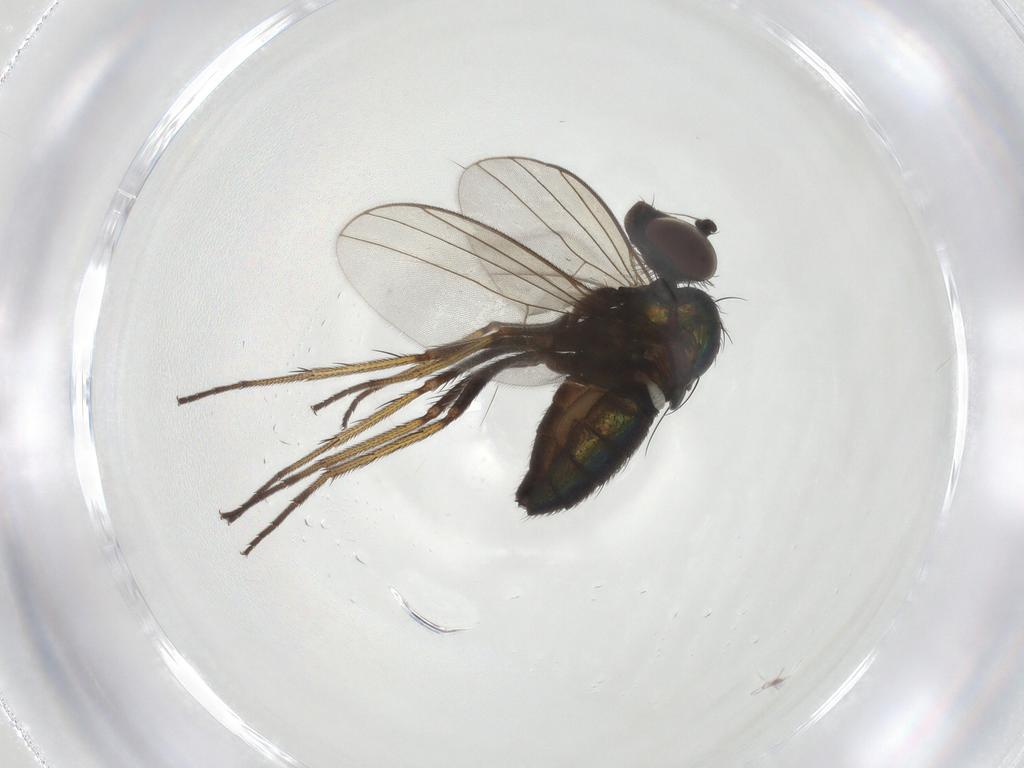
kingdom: Animalia
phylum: Arthropoda
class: Insecta
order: Diptera
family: Dolichopodidae
